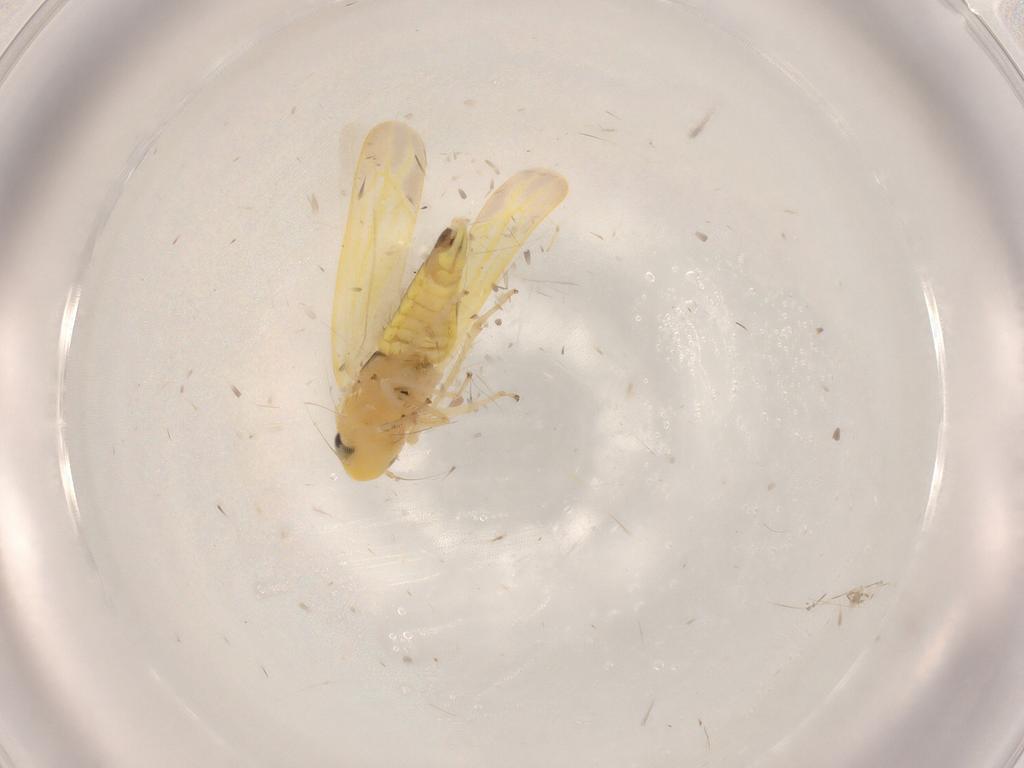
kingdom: Animalia
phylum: Arthropoda
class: Insecta
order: Hemiptera
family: Cicadellidae
